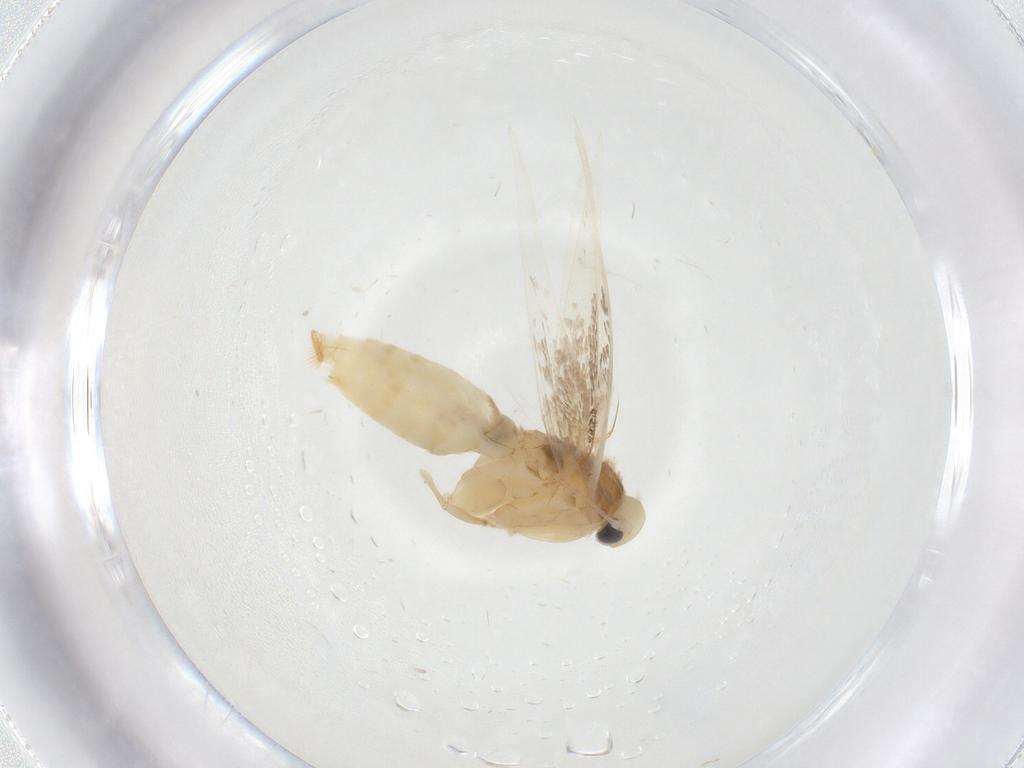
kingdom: Animalia
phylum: Arthropoda
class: Insecta
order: Lepidoptera
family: Gracillariidae
